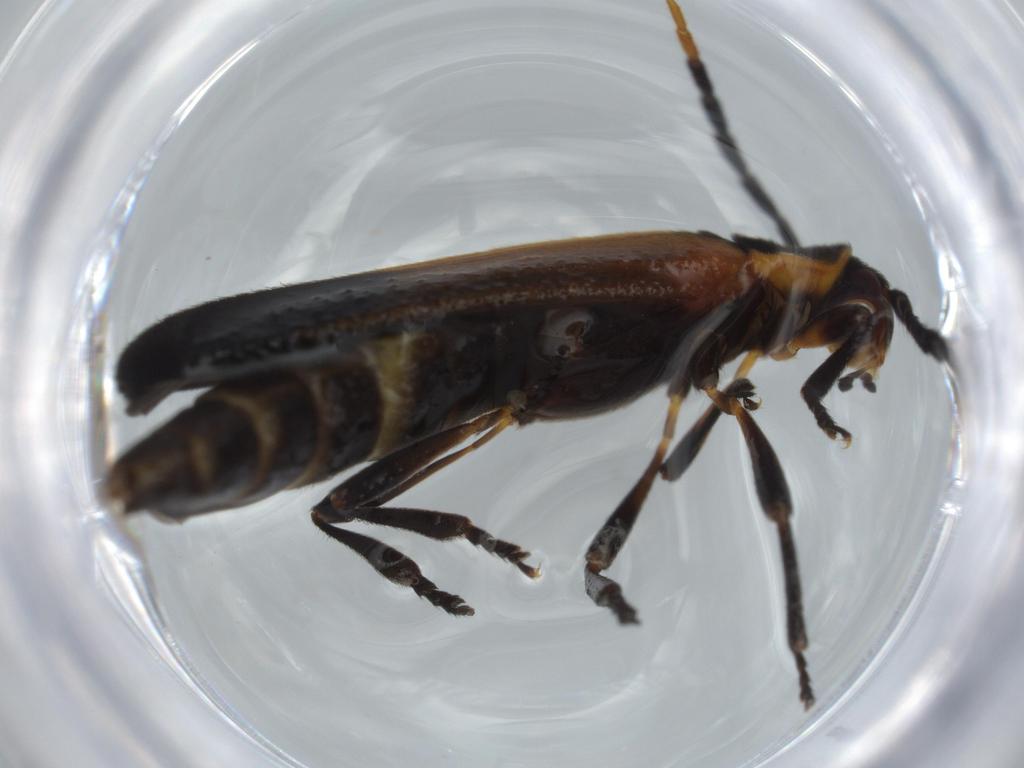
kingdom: Animalia
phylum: Arthropoda
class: Insecta
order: Coleoptera
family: Lycidae
